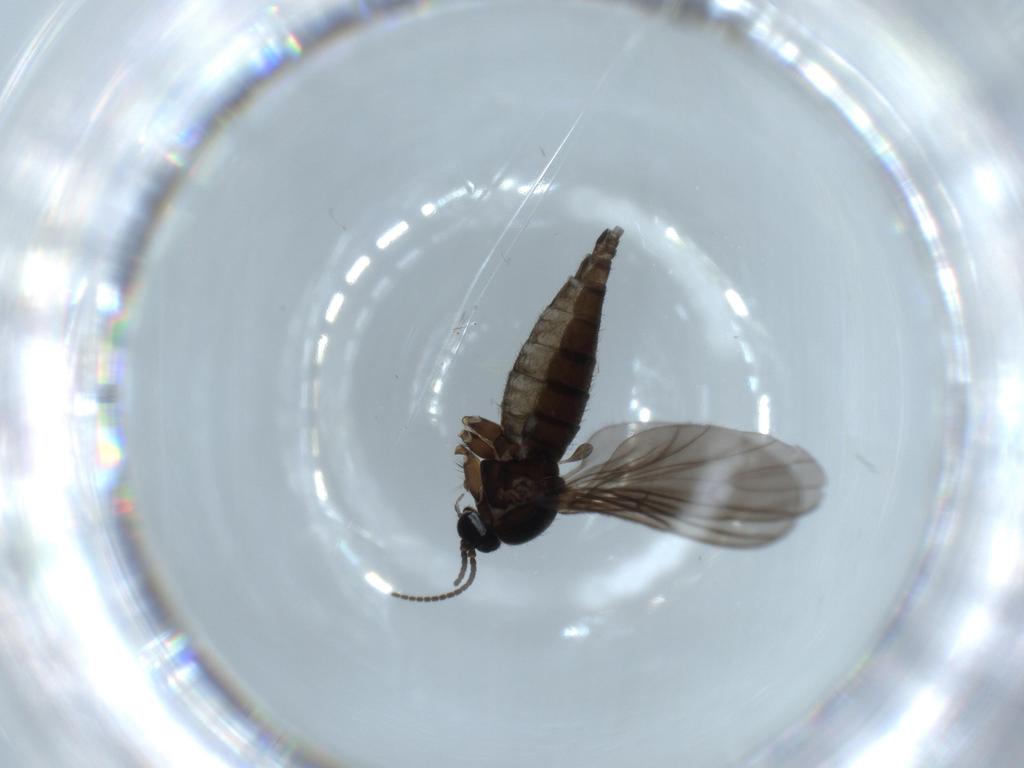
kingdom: Animalia
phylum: Arthropoda
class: Insecta
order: Diptera
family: Sciaridae
